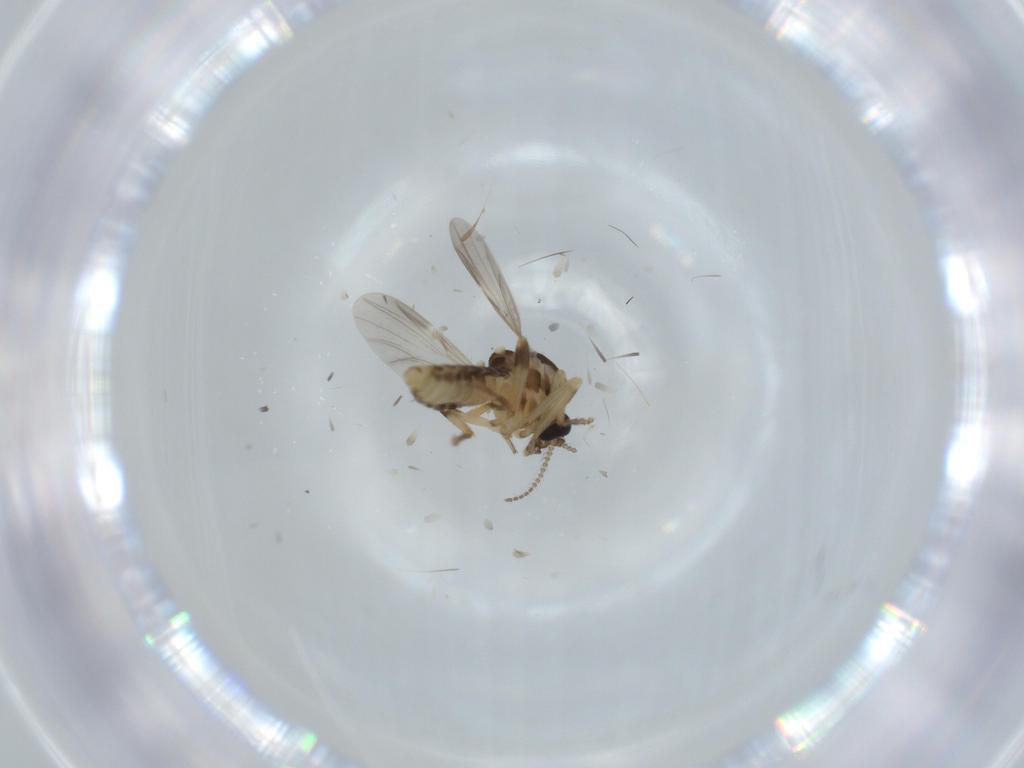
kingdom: Animalia
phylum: Arthropoda
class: Insecta
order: Diptera
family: Ceratopogonidae
